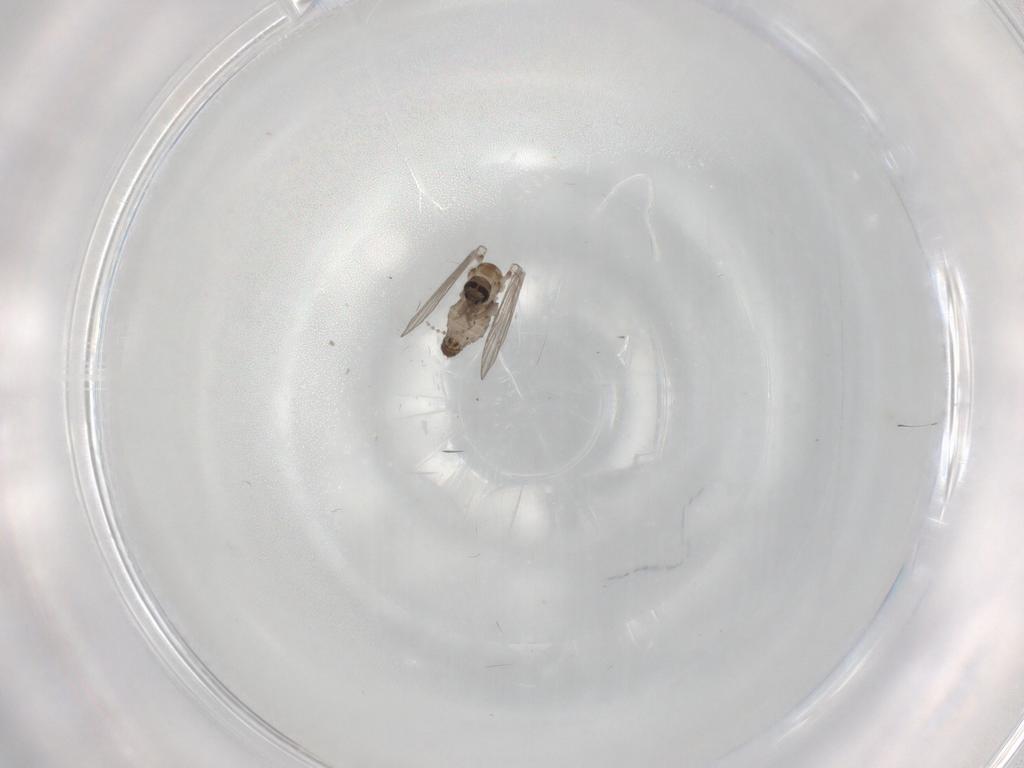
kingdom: Animalia
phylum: Arthropoda
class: Insecta
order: Diptera
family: Psychodidae
